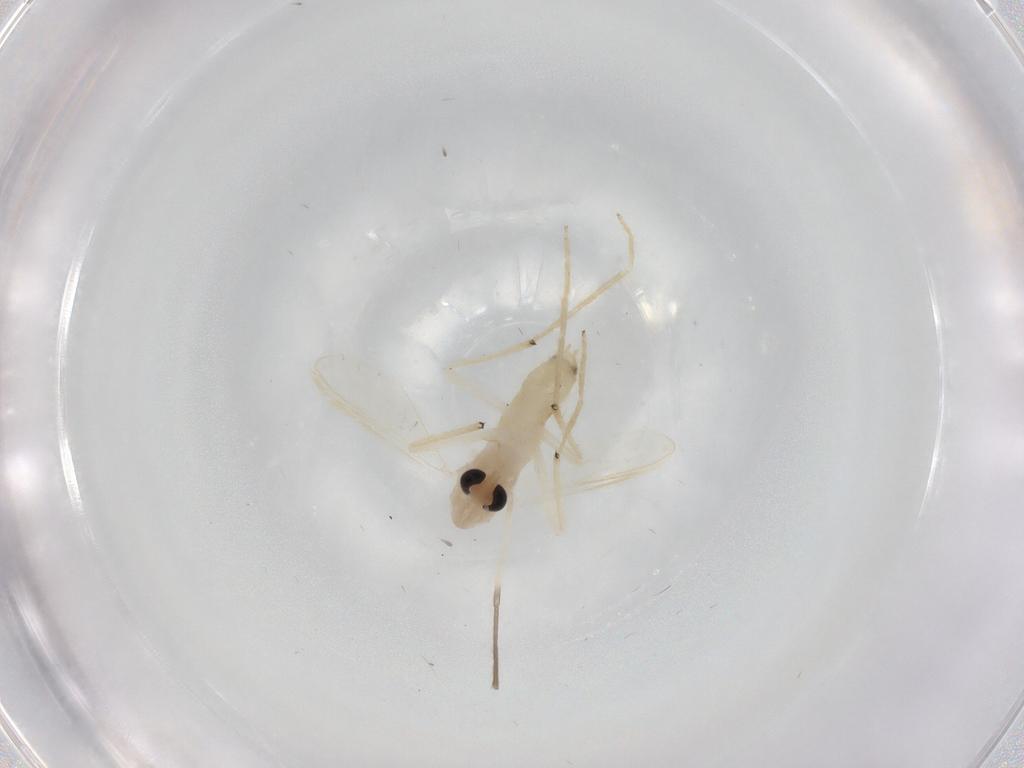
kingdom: Animalia
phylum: Arthropoda
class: Insecta
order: Diptera
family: Chironomidae
